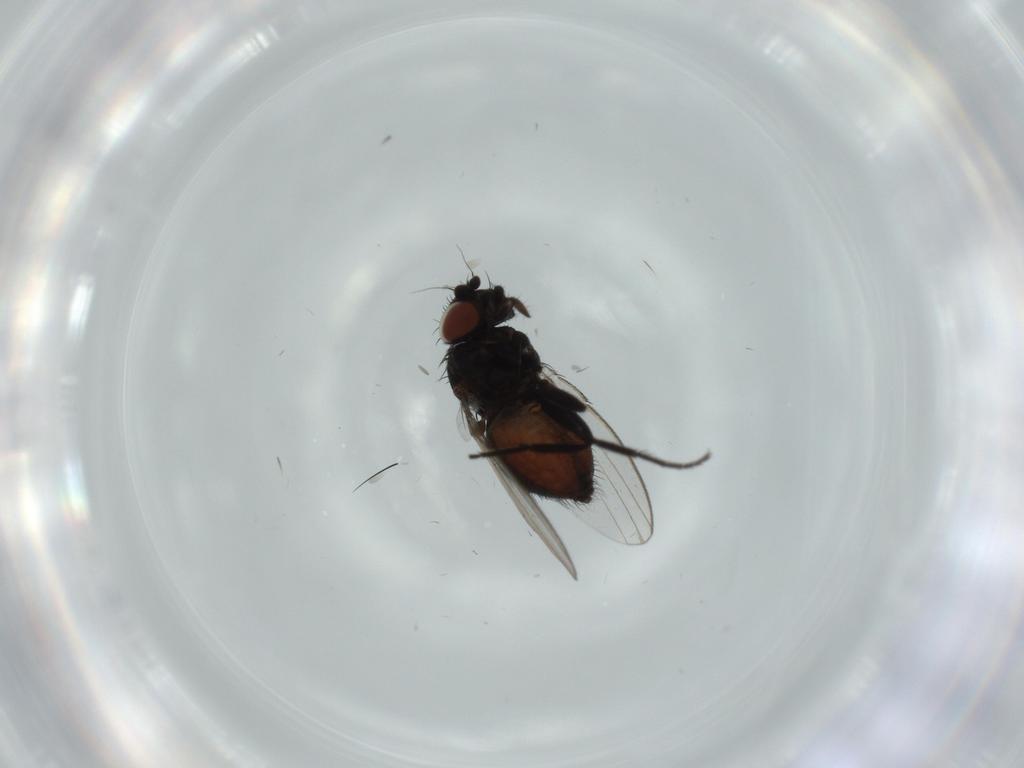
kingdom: Animalia
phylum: Arthropoda
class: Insecta
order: Diptera
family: Milichiidae
